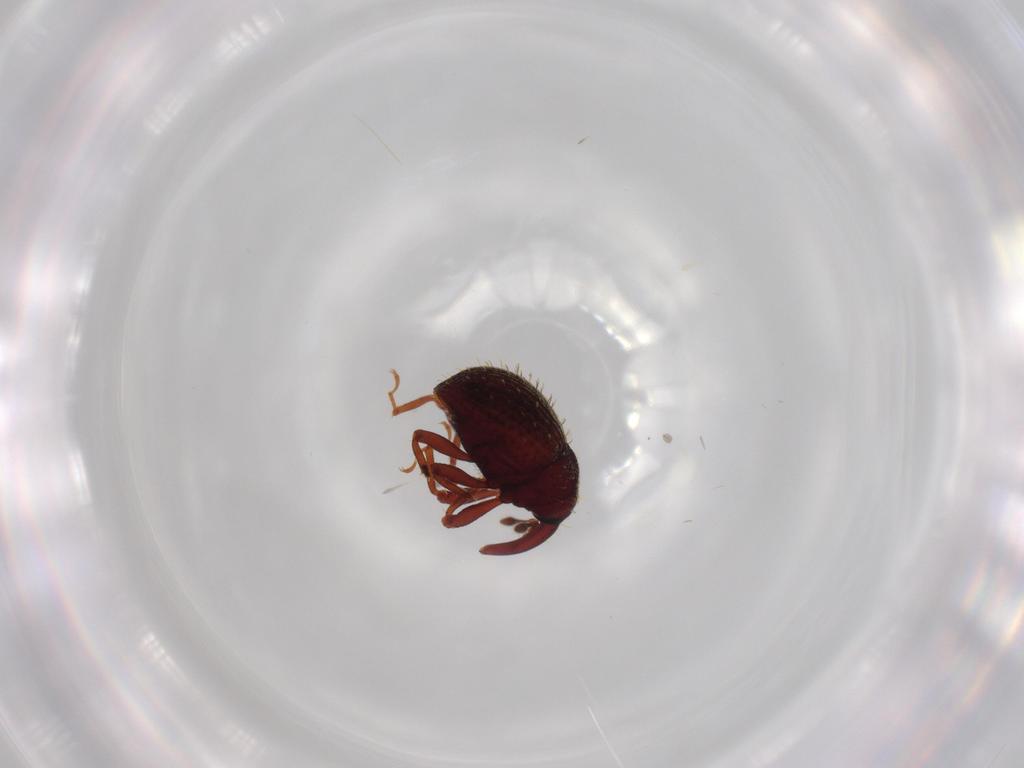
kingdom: Animalia
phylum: Arthropoda
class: Insecta
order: Coleoptera
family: Curculionidae
